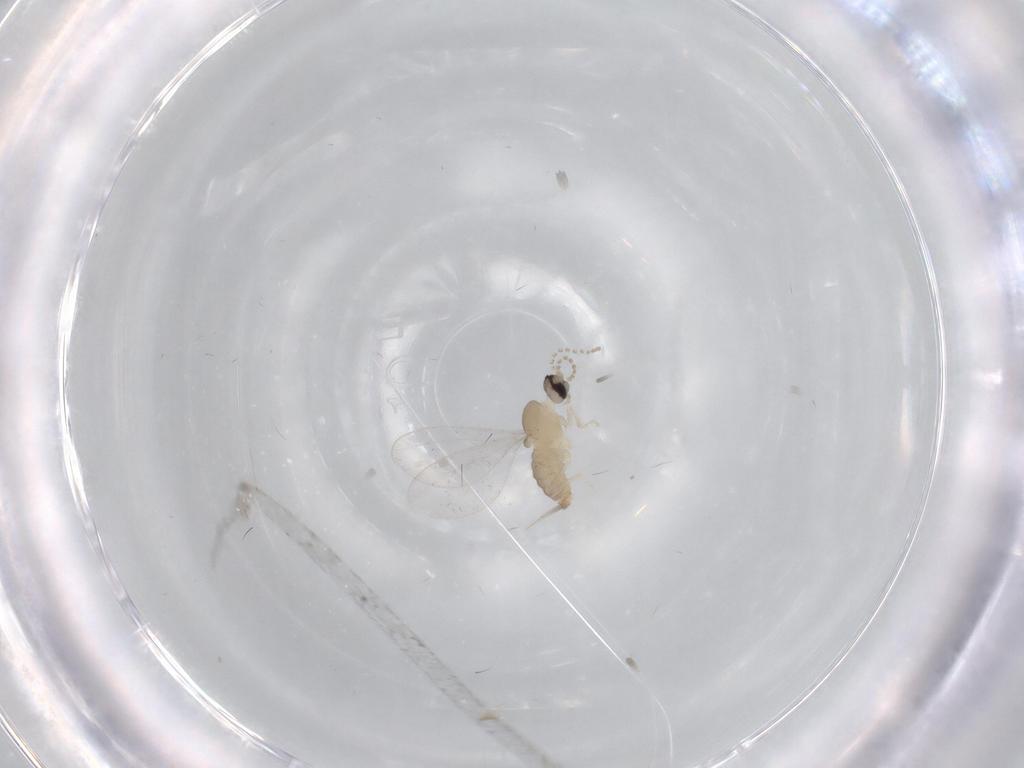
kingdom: Animalia
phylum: Arthropoda
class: Insecta
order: Diptera
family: Cecidomyiidae
